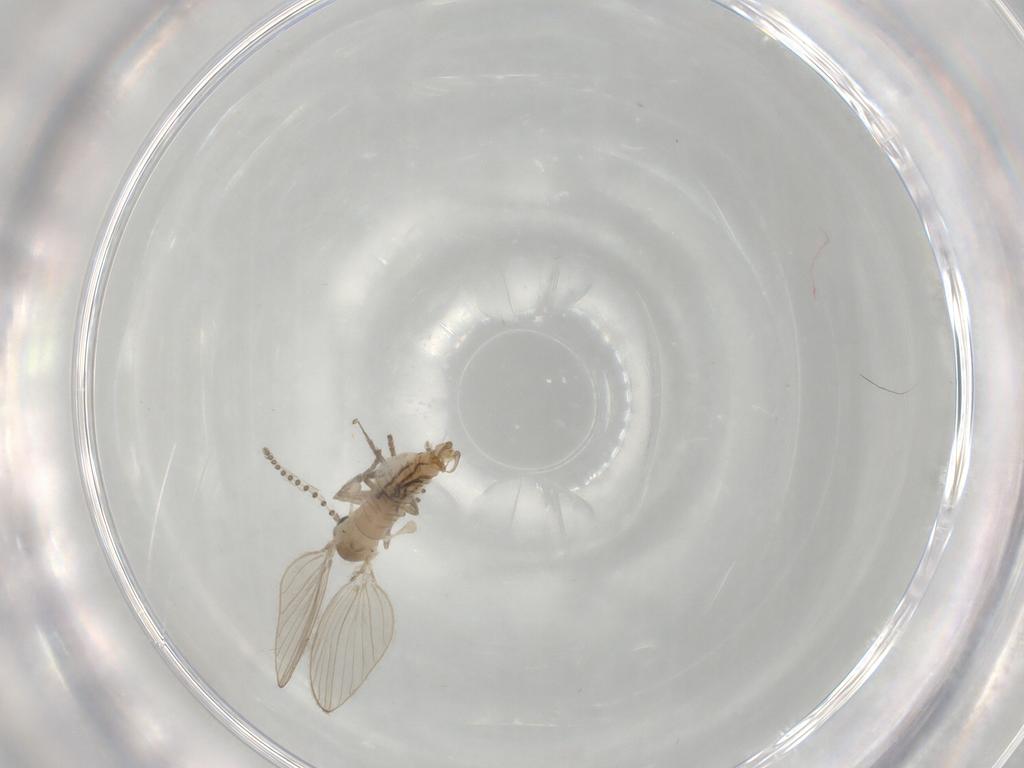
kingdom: Animalia
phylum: Arthropoda
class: Insecta
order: Diptera
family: Psychodidae
